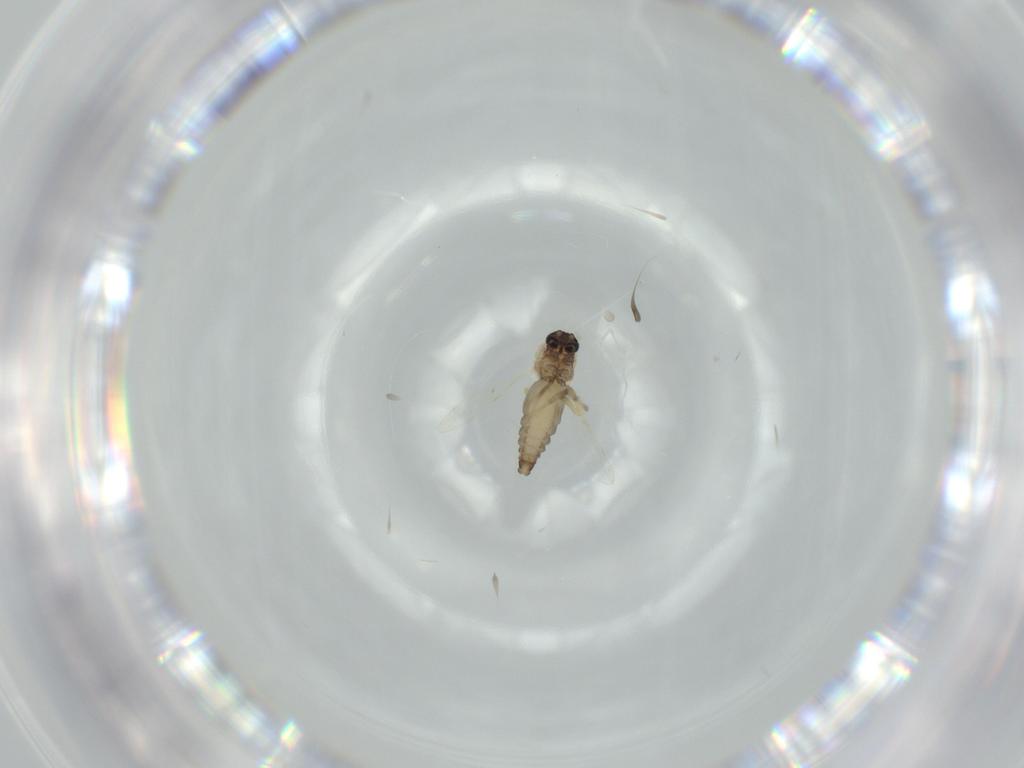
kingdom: Animalia
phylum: Arthropoda
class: Insecta
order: Diptera
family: Ceratopogonidae
